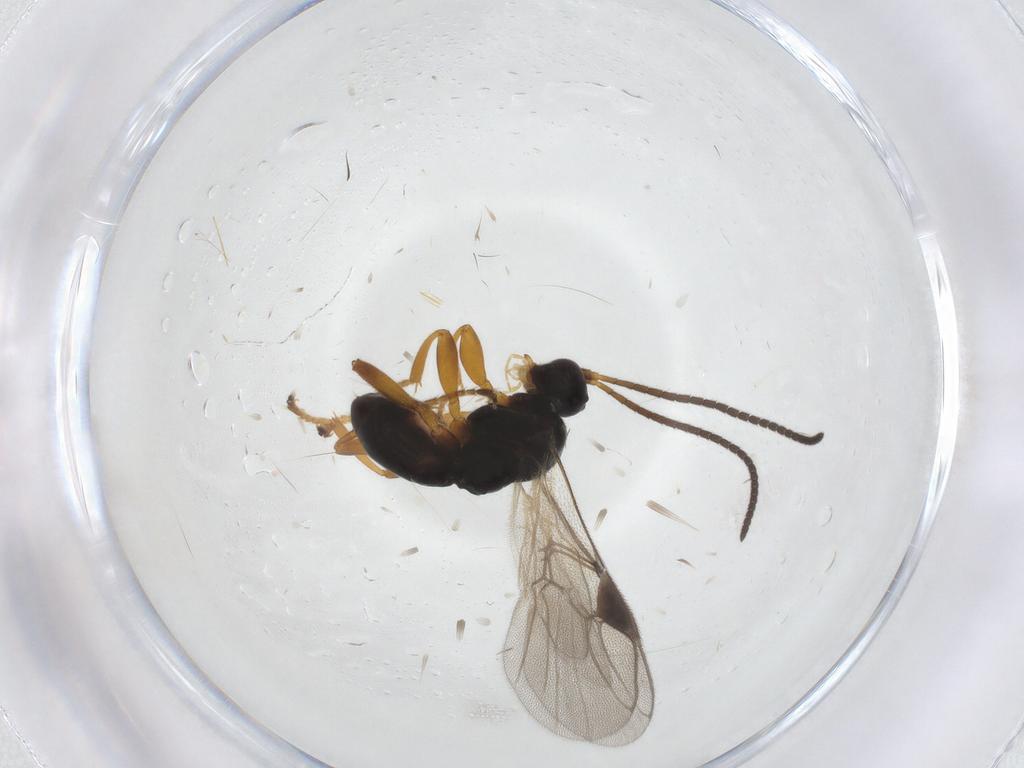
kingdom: Animalia
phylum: Arthropoda
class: Insecta
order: Hymenoptera
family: Braconidae
